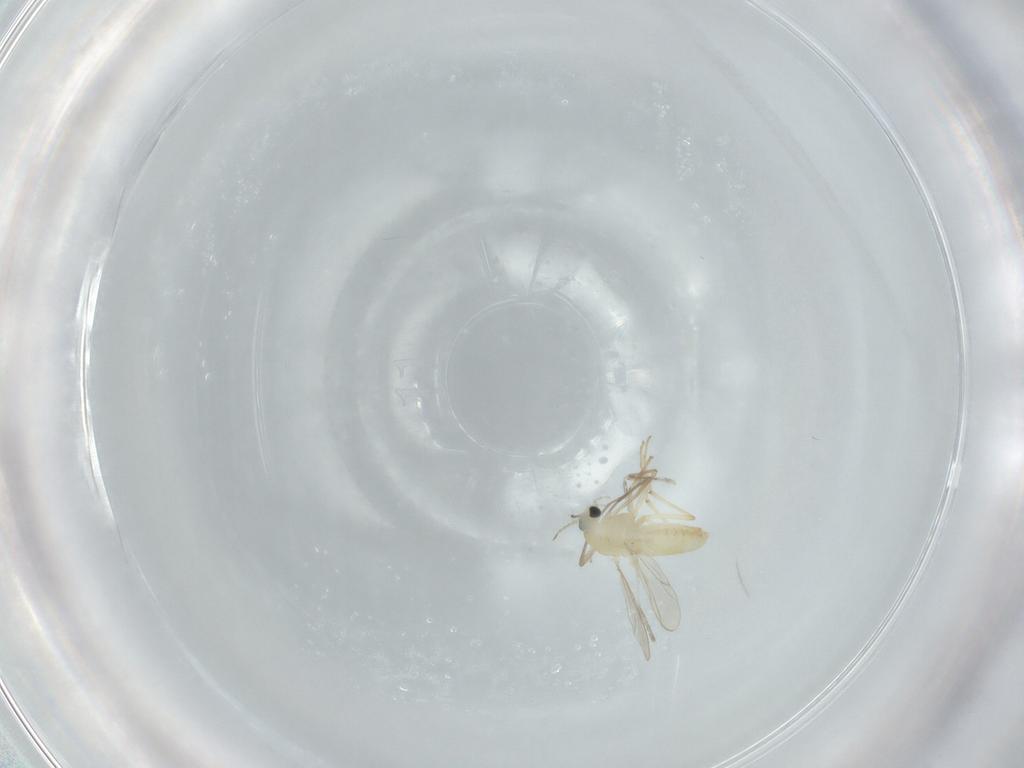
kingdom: Animalia
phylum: Arthropoda
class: Insecta
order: Diptera
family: Chironomidae
